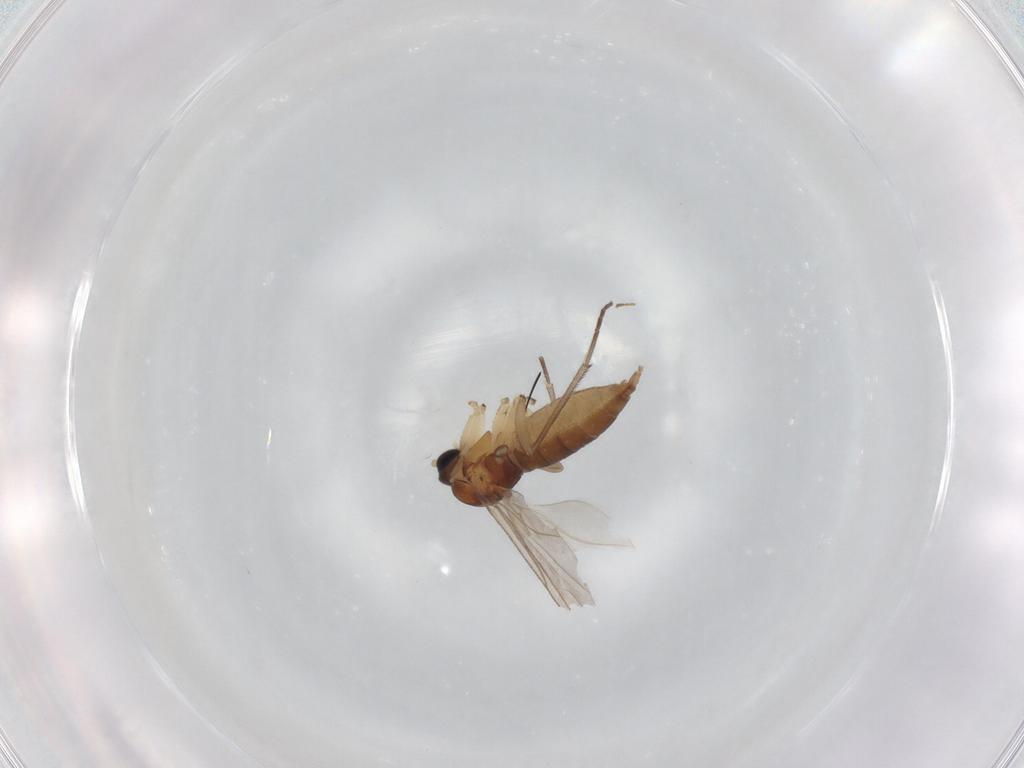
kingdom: Animalia
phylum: Arthropoda
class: Insecta
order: Diptera
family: Sciaridae
